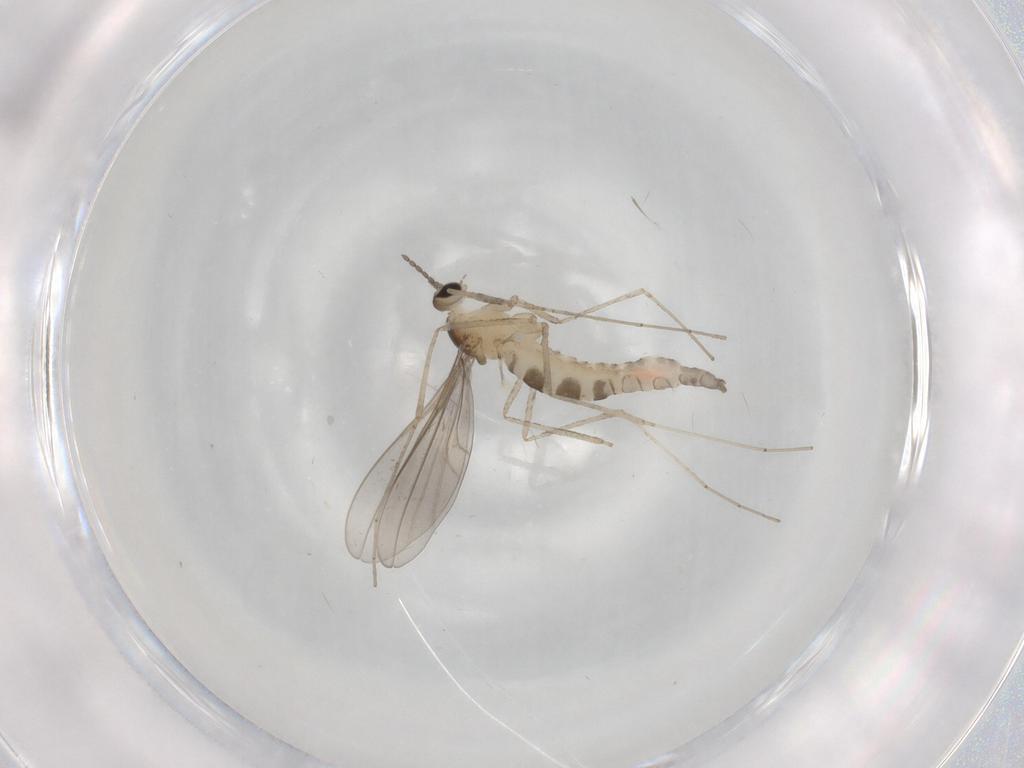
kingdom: Animalia
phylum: Arthropoda
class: Insecta
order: Diptera
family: Cecidomyiidae
